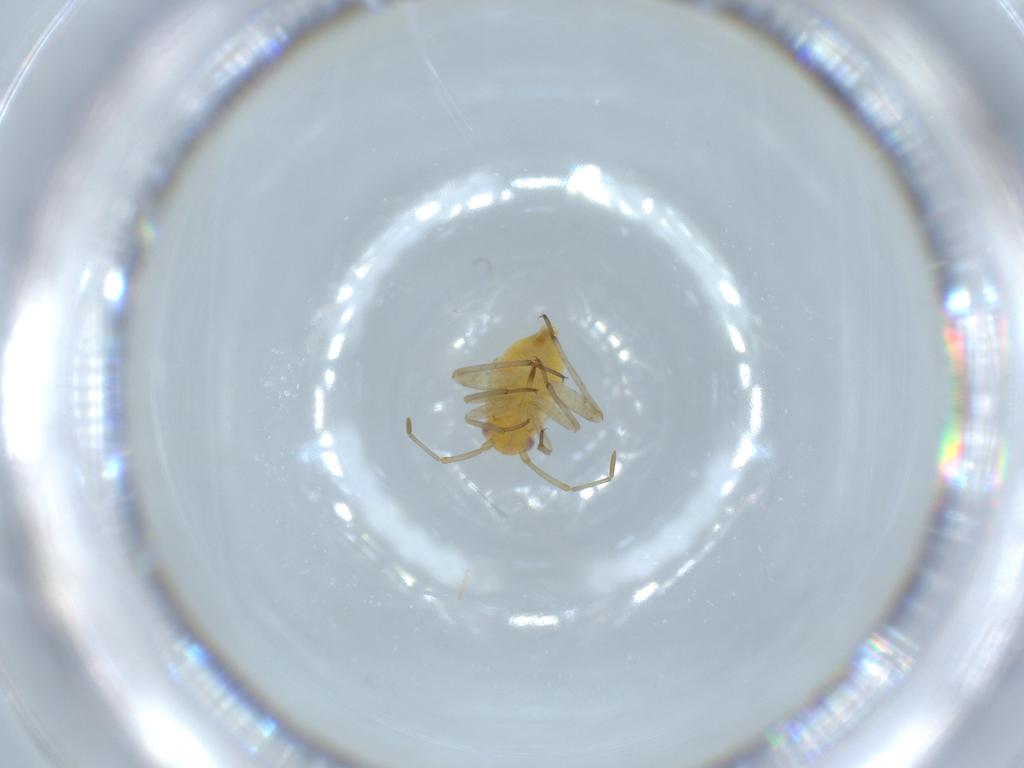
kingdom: Animalia
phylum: Arthropoda
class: Insecta
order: Hemiptera
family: Miridae
